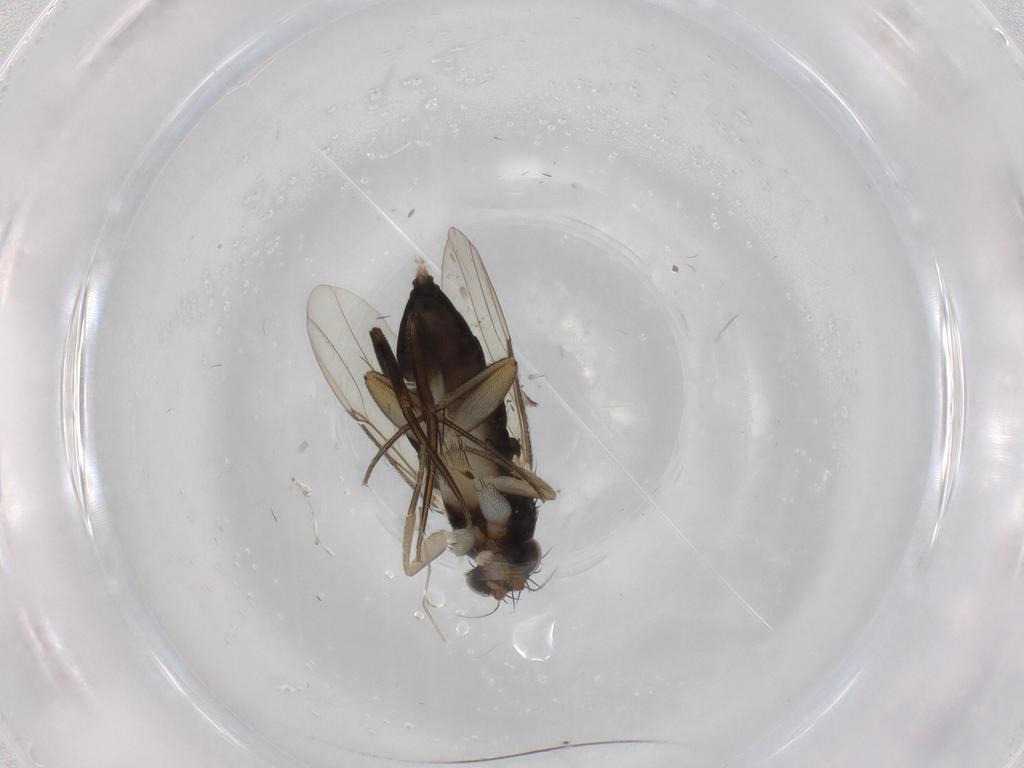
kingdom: Animalia
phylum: Arthropoda
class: Insecta
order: Diptera
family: Phoridae
